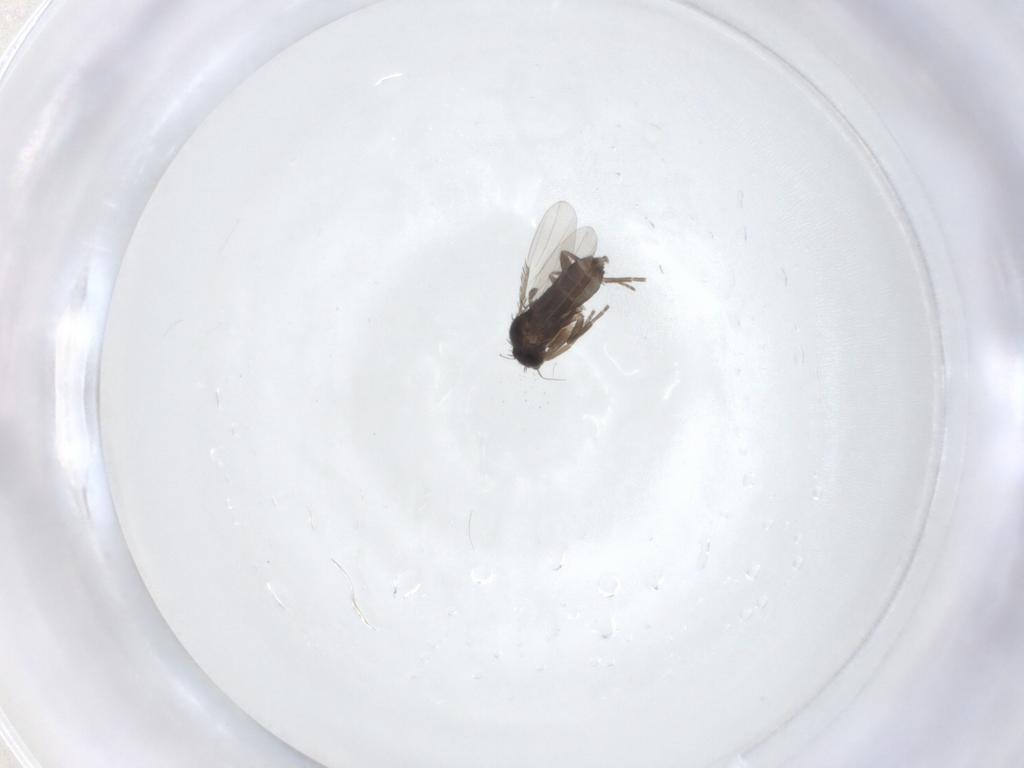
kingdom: Animalia
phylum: Arthropoda
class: Insecta
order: Diptera
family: Phoridae
